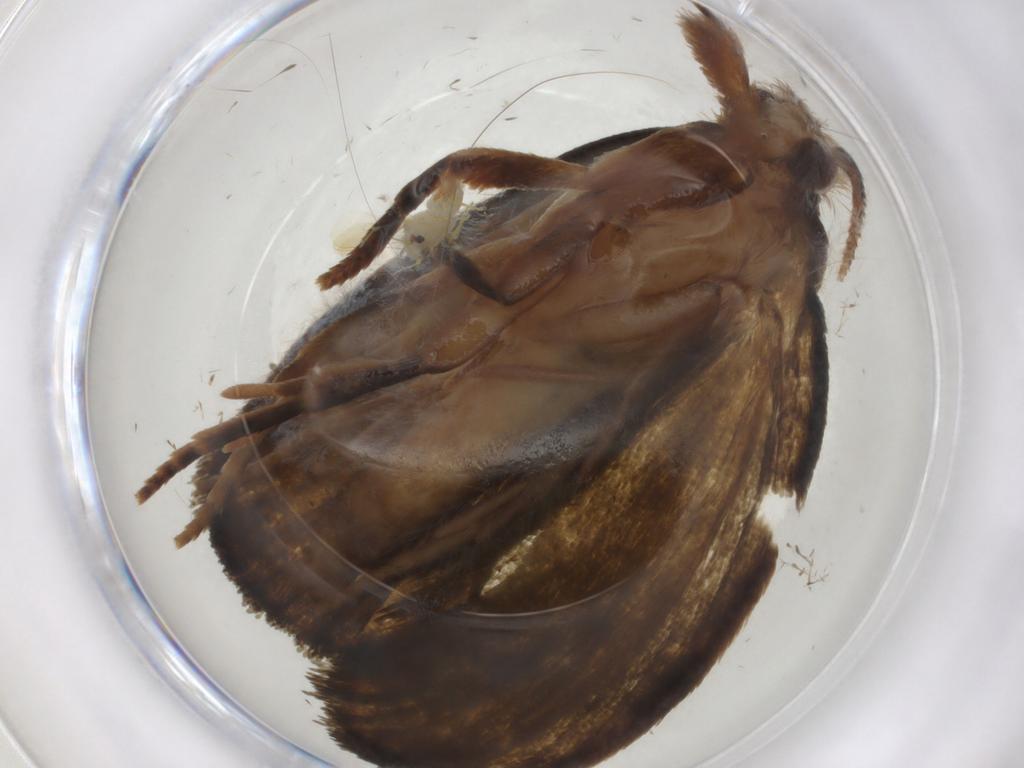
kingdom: Animalia
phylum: Arthropoda
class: Insecta
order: Lepidoptera
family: Geometridae
